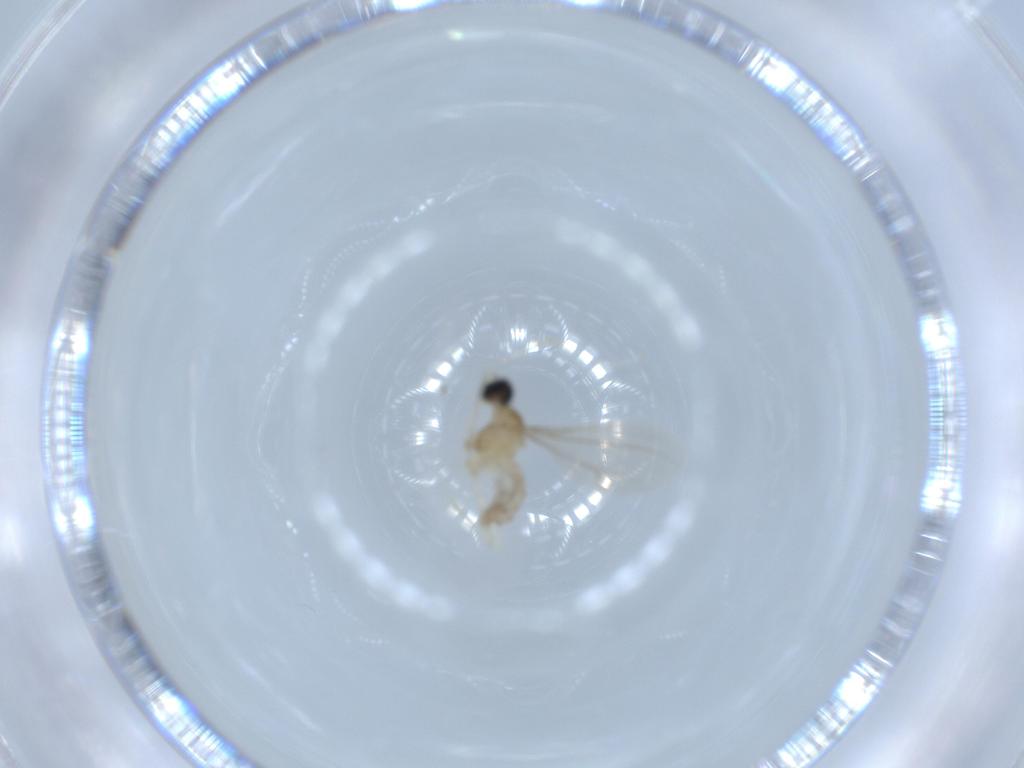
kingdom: Animalia
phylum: Arthropoda
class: Insecta
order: Diptera
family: Cecidomyiidae
